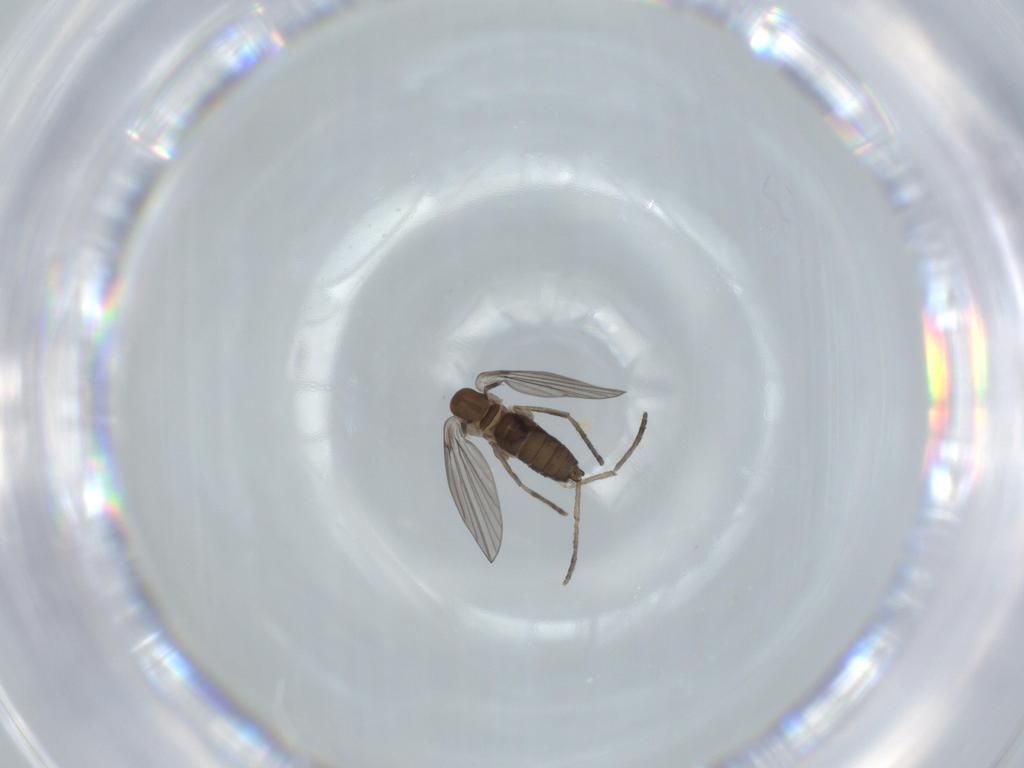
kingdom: Animalia
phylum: Arthropoda
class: Insecta
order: Diptera
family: Psychodidae
